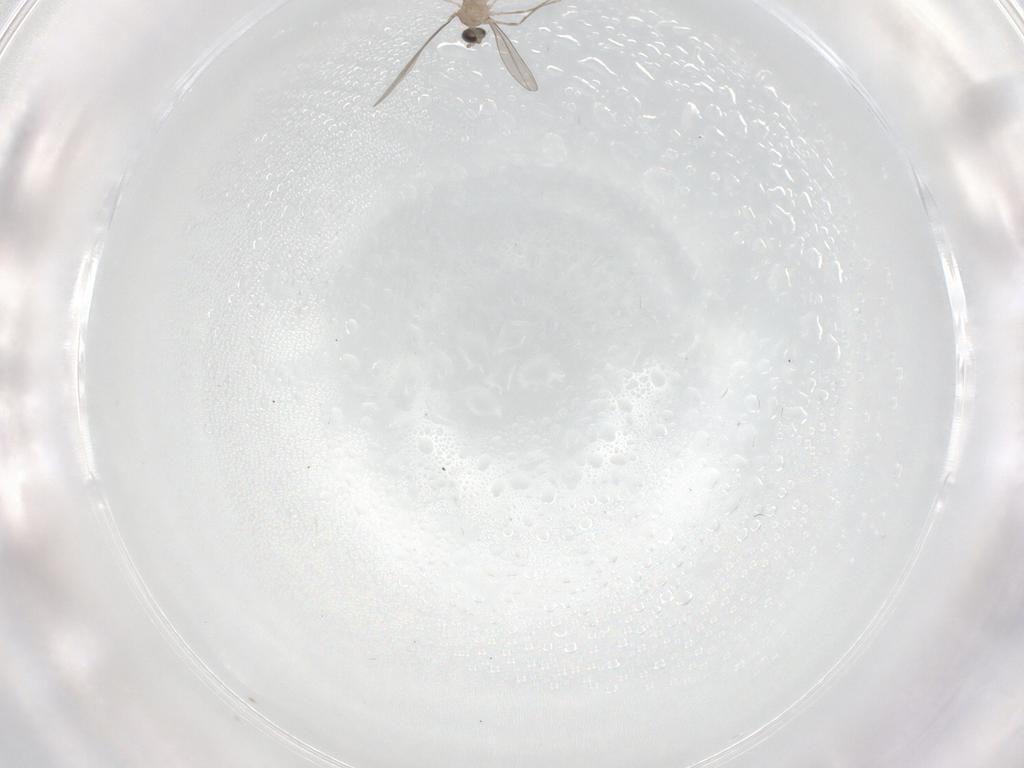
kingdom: Animalia
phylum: Arthropoda
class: Insecta
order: Diptera
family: Cecidomyiidae
